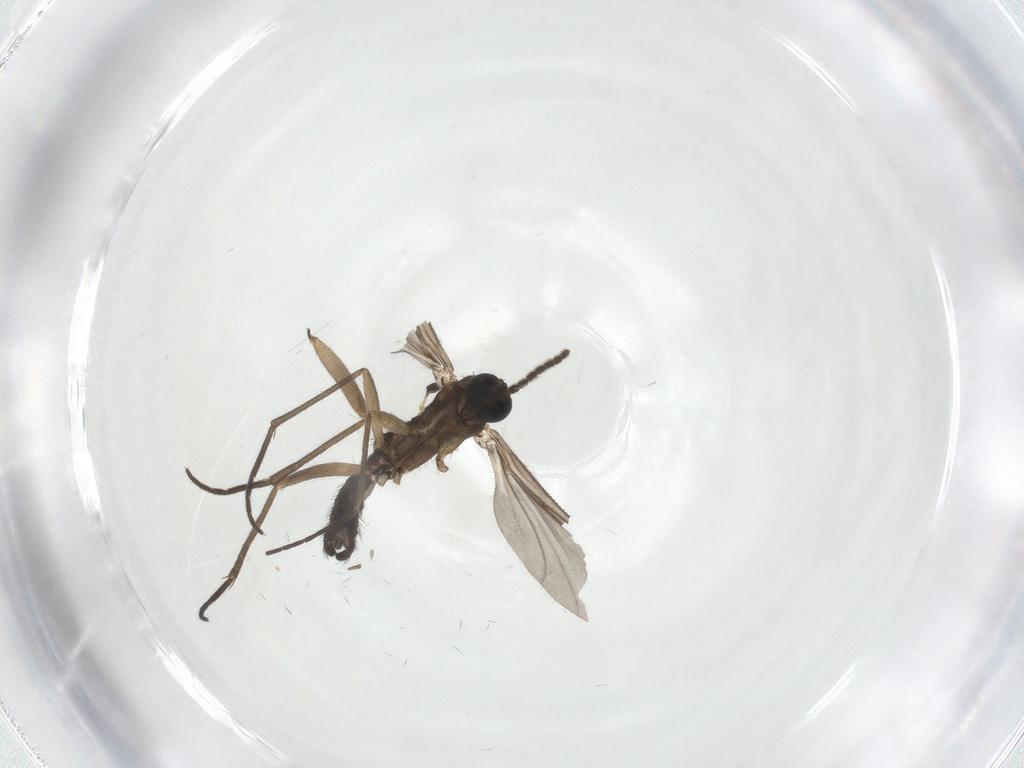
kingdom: Animalia
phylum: Arthropoda
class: Insecta
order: Diptera
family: Sciaridae
